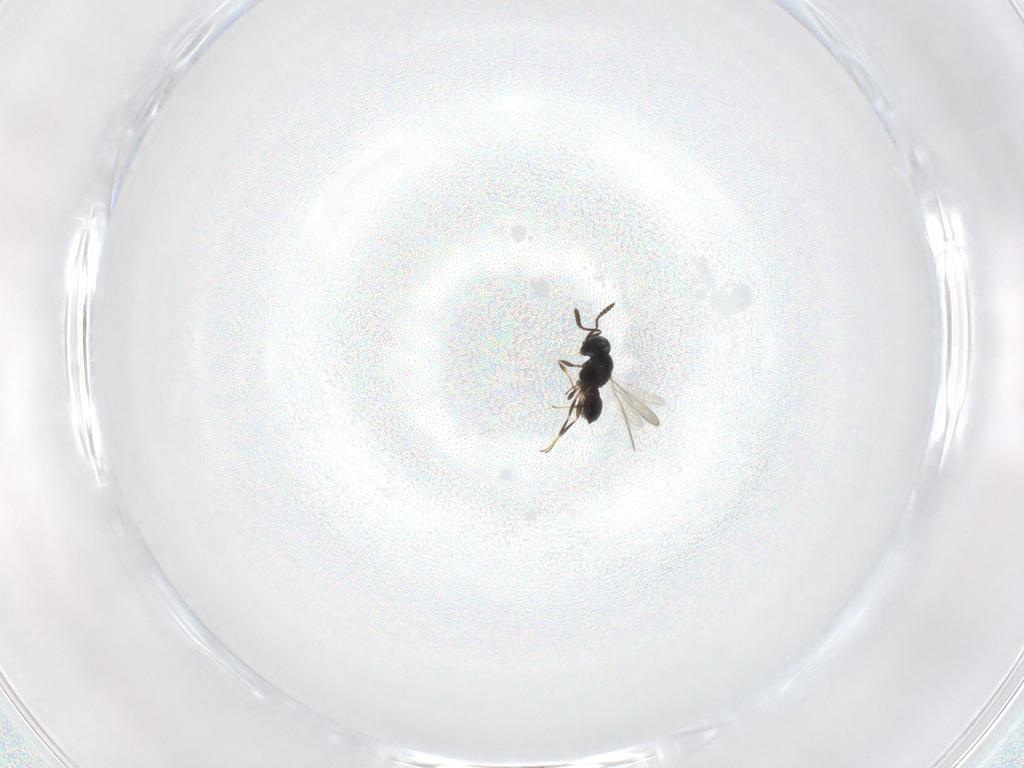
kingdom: Animalia
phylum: Arthropoda
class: Insecta
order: Hymenoptera
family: Scelionidae
